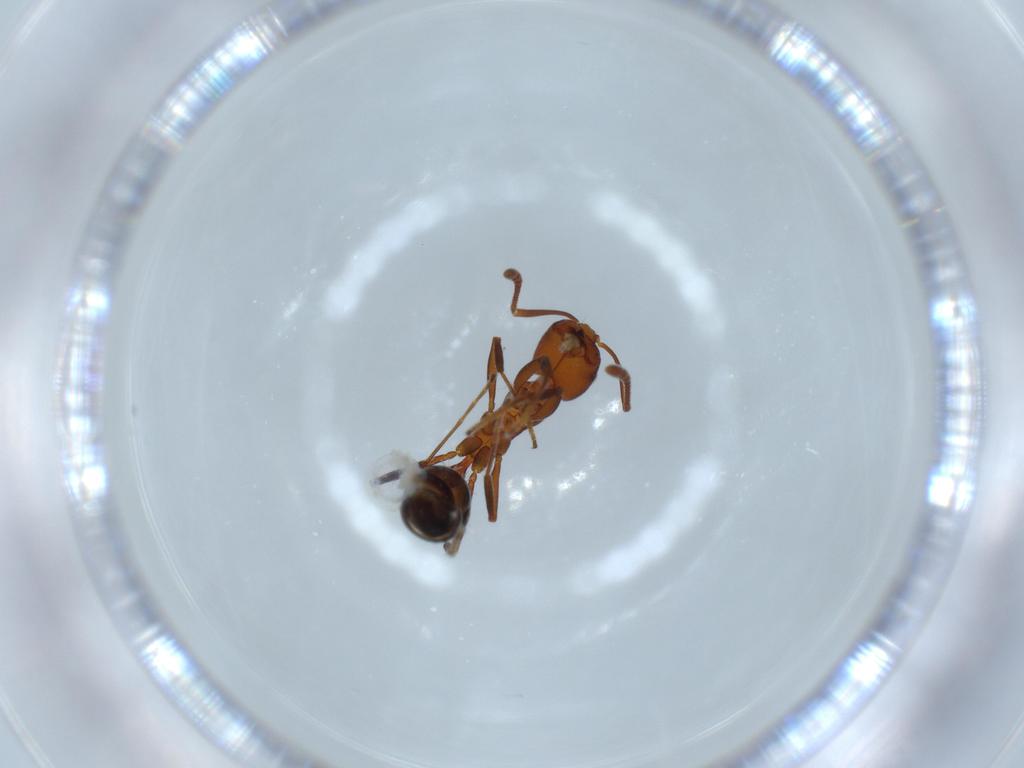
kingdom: Animalia
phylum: Arthropoda
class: Insecta
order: Hymenoptera
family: Formicidae
